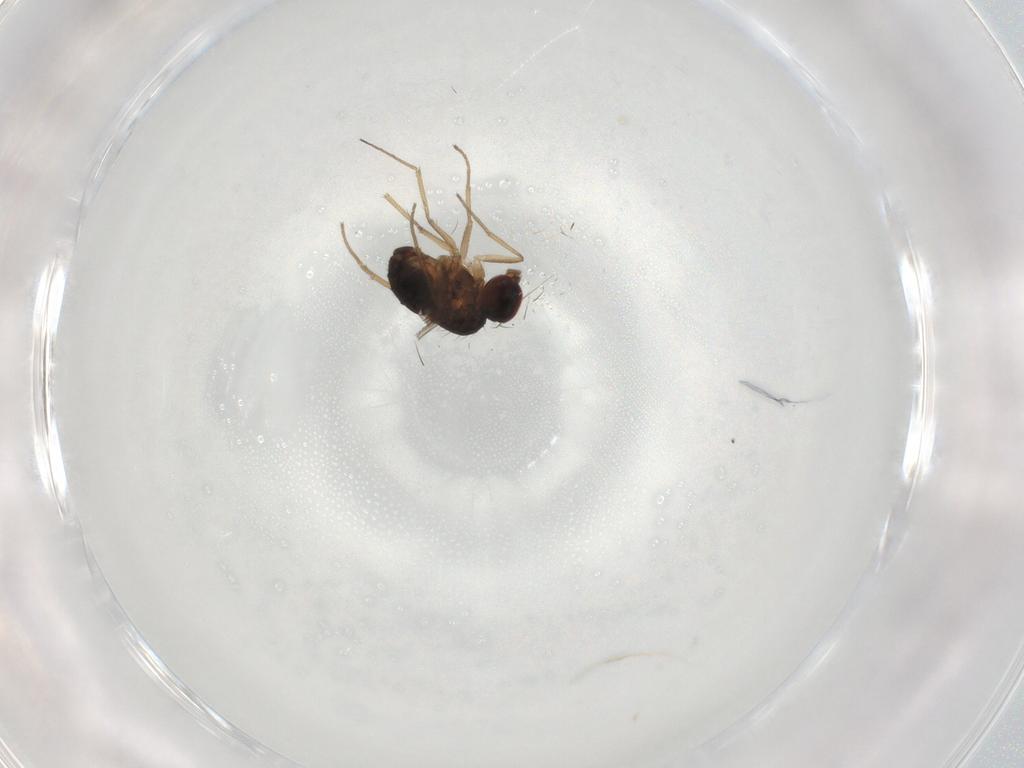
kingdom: Animalia
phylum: Arthropoda
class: Insecta
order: Diptera
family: Dolichopodidae
